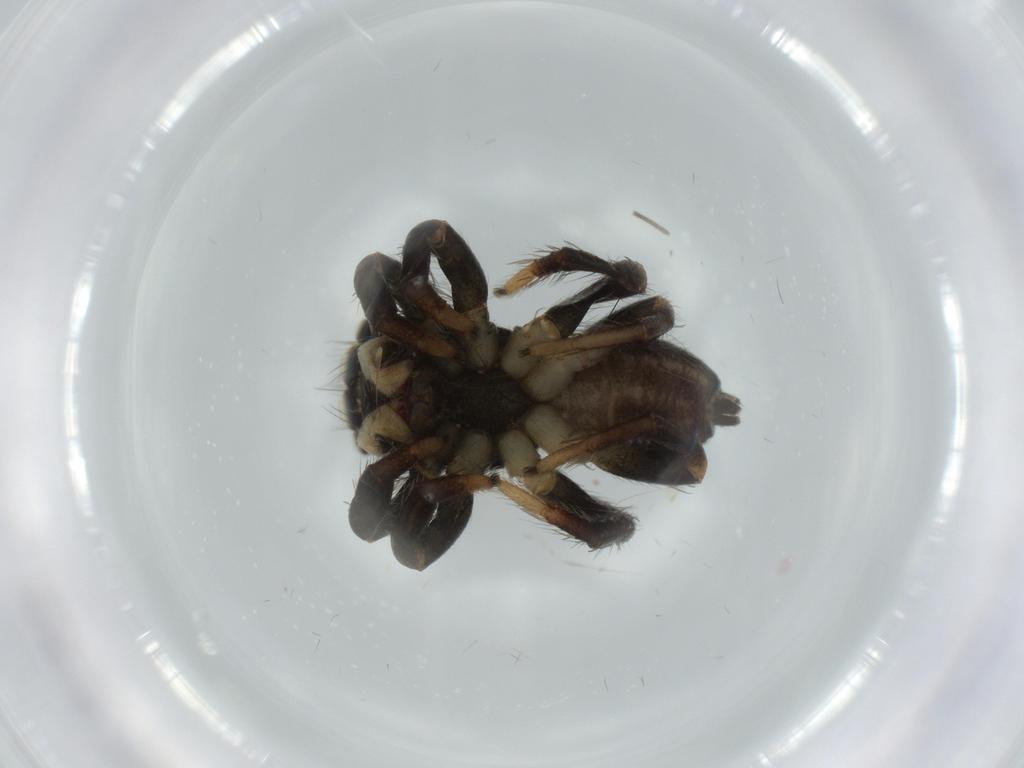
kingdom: Animalia
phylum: Arthropoda
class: Arachnida
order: Araneae
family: Salticidae
